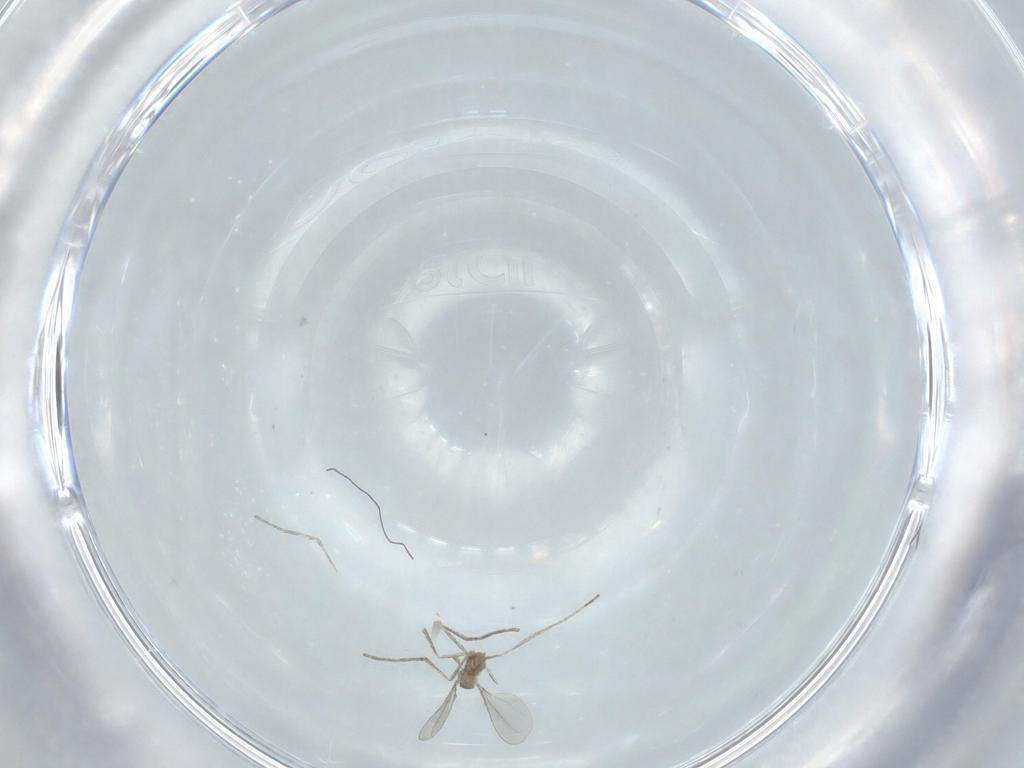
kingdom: Animalia
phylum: Arthropoda
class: Insecta
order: Diptera
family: Cecidomyiidae
